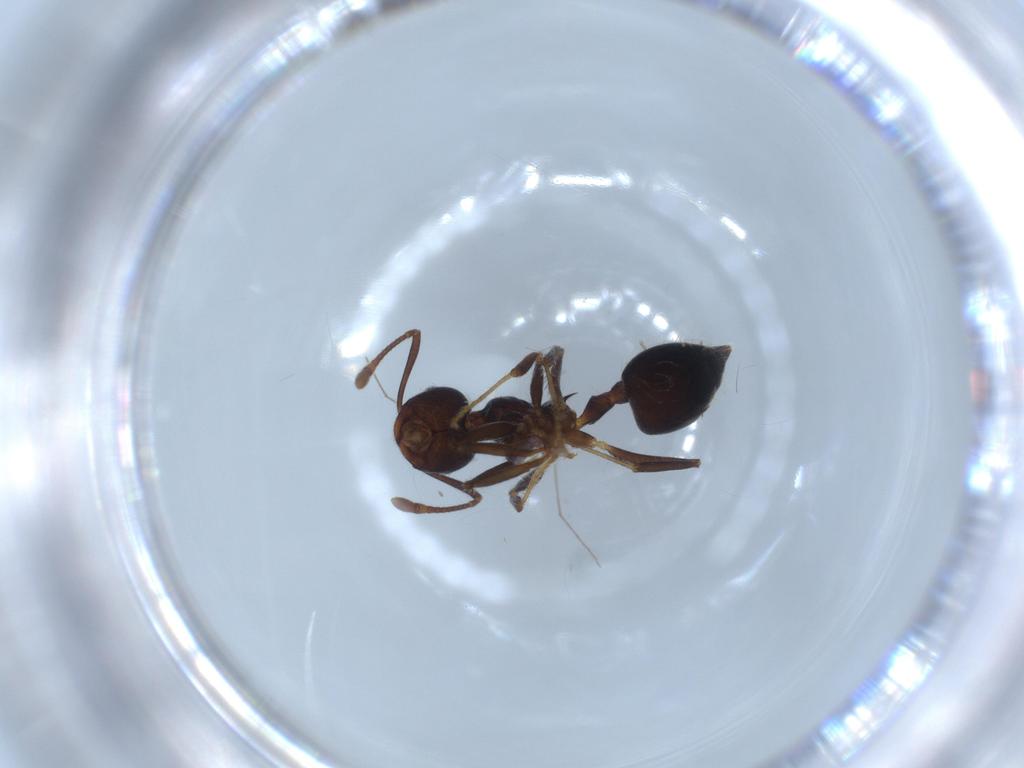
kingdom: Animalia
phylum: Arthropoda
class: Insecta
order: Hymenoptera
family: Formicidae
